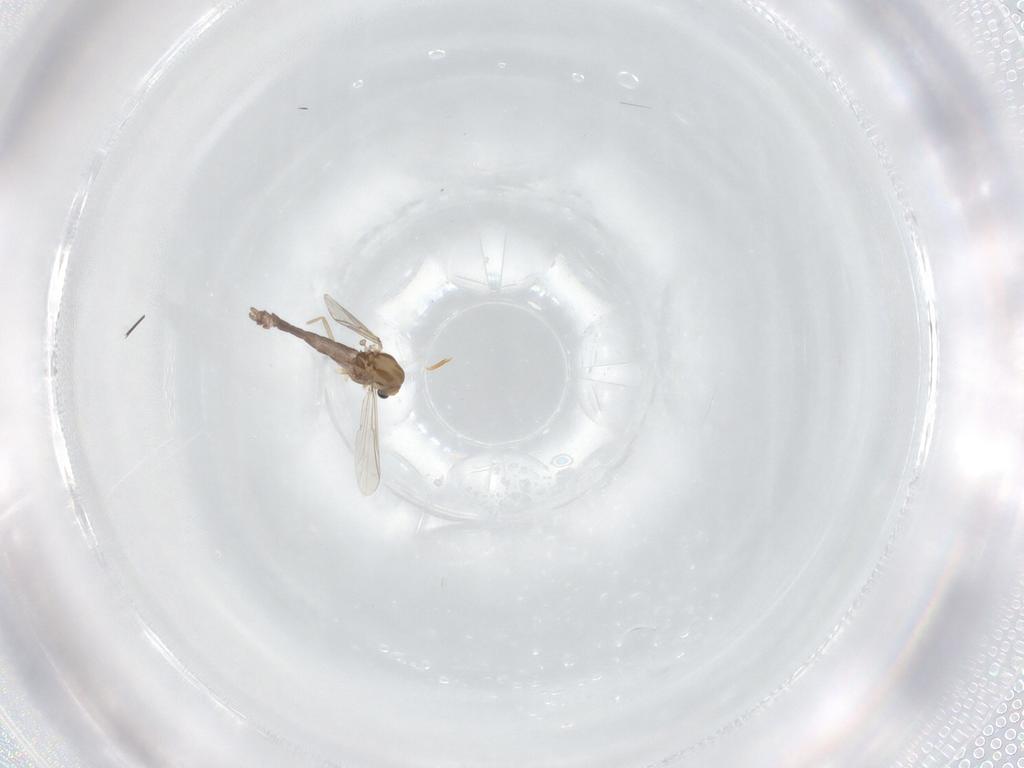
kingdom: Animalia
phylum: Arthropoda
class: Insecta
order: Diptera
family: Chironomidae
